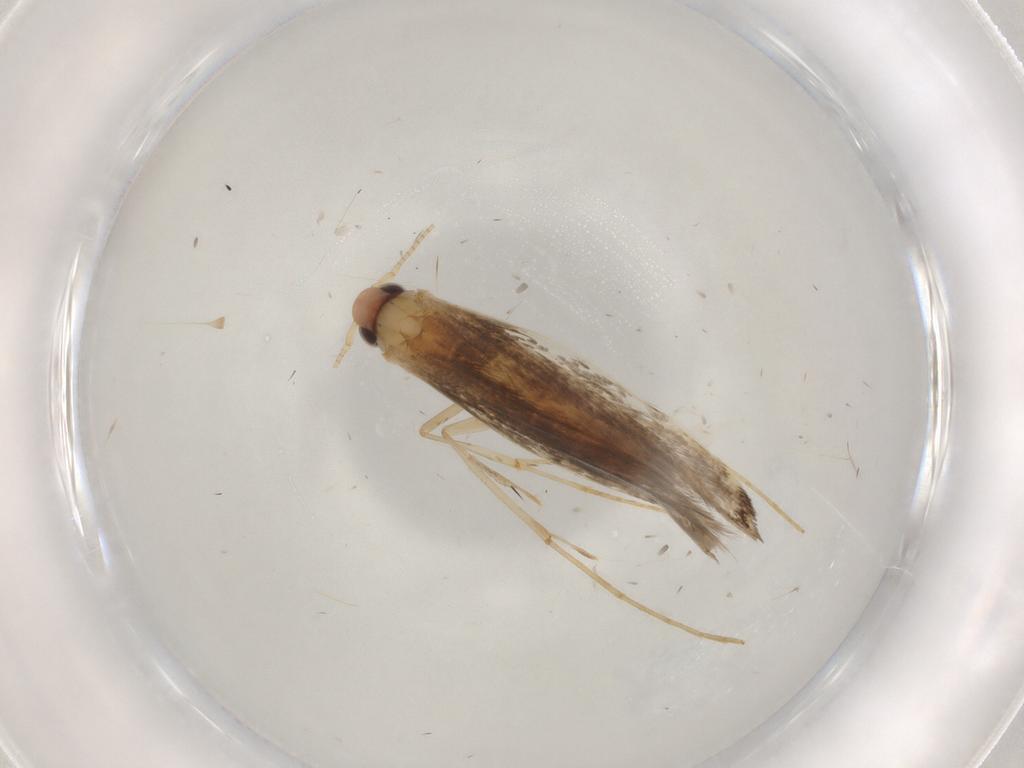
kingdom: Animalia
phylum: Arthropoda
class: Insecta
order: Lepidoptera
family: Gracillariidae
